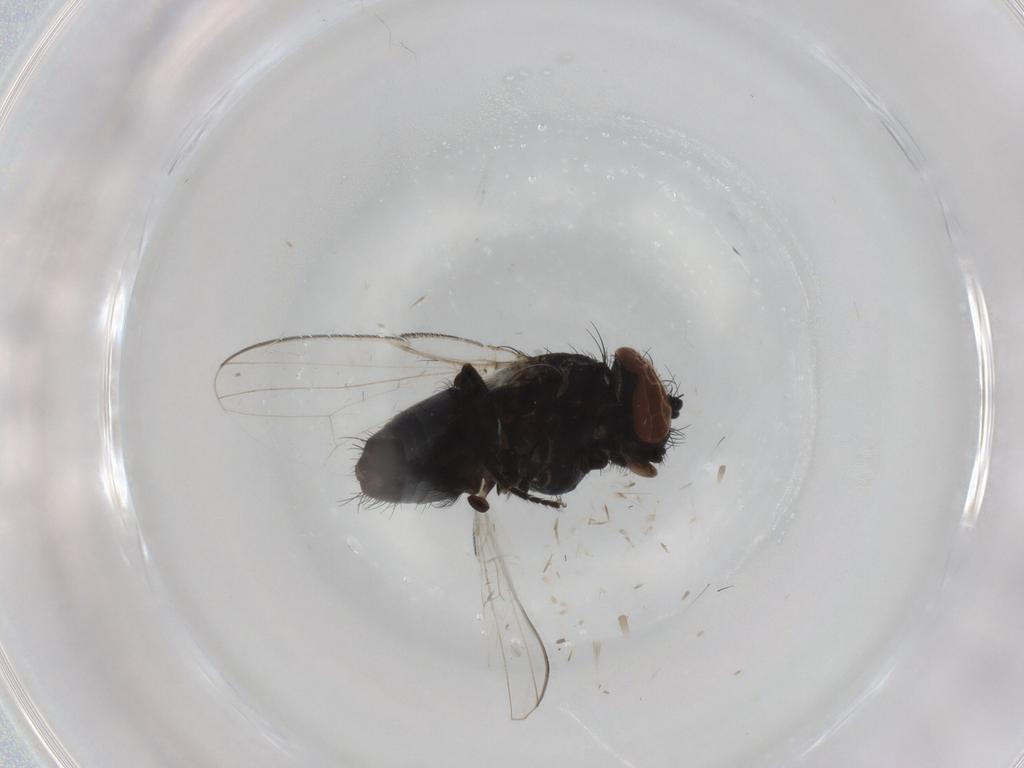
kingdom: Animalia
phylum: Arthropoda
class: Insecta
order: Diptera
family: Milichiidae
